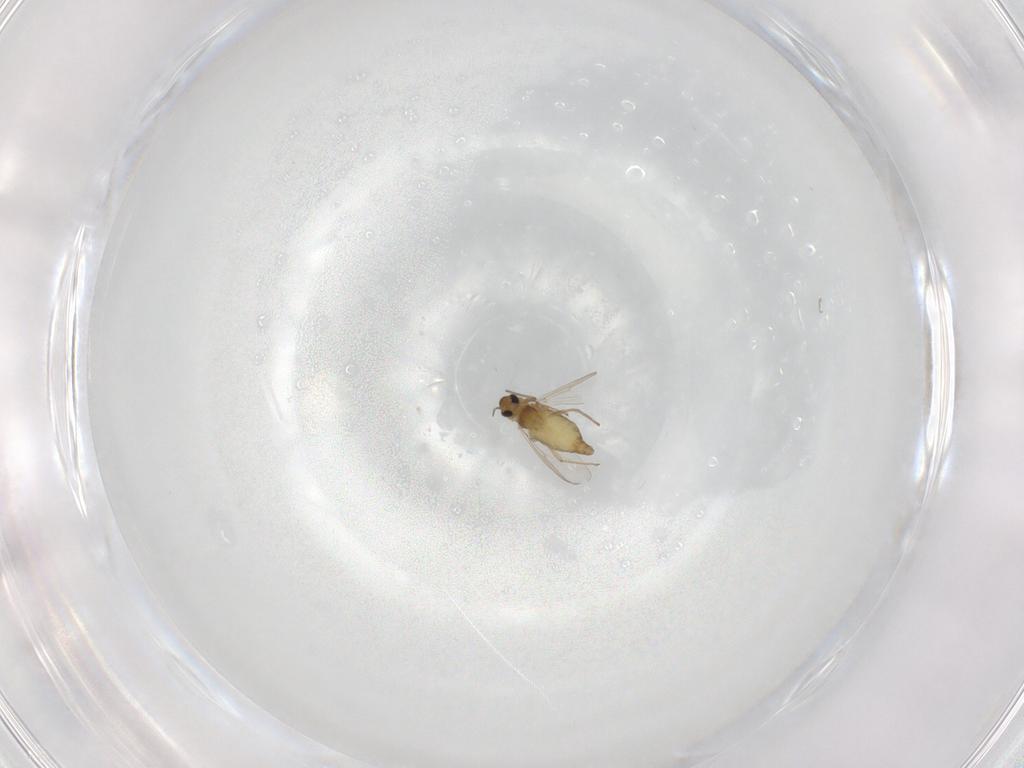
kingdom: Animalia
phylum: Arthropoda
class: Insecta
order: Diptera
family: Chironomidae
